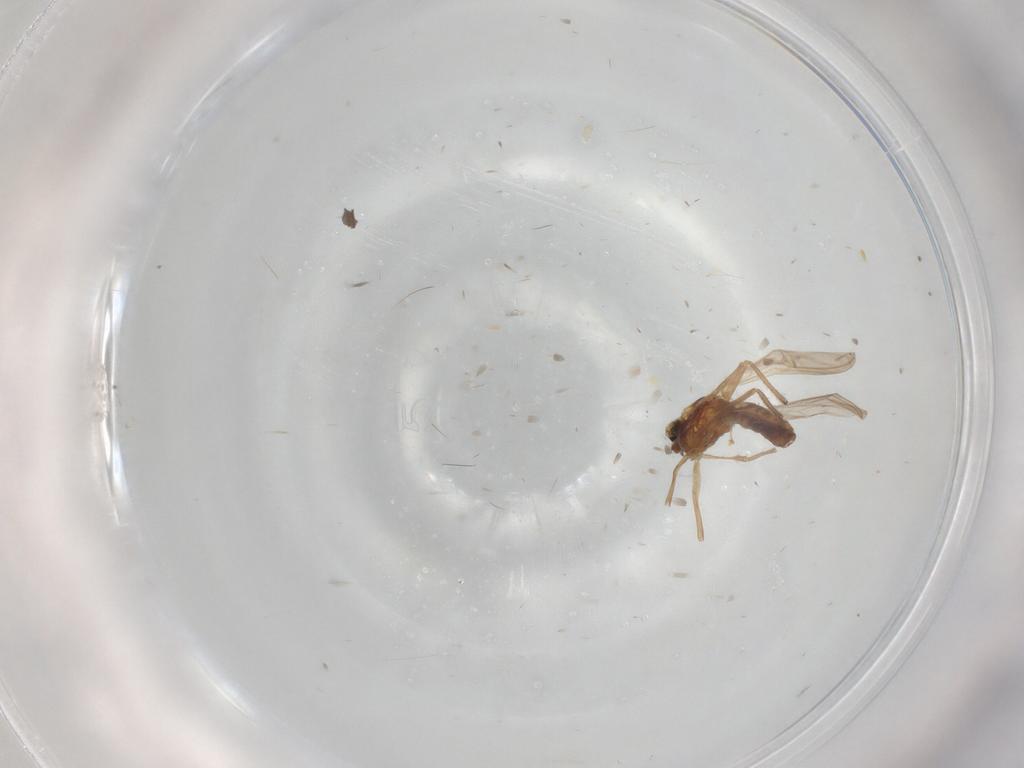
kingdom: Animalia
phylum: Arthropoda
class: Insecta
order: Diptera
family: Chironomidae
